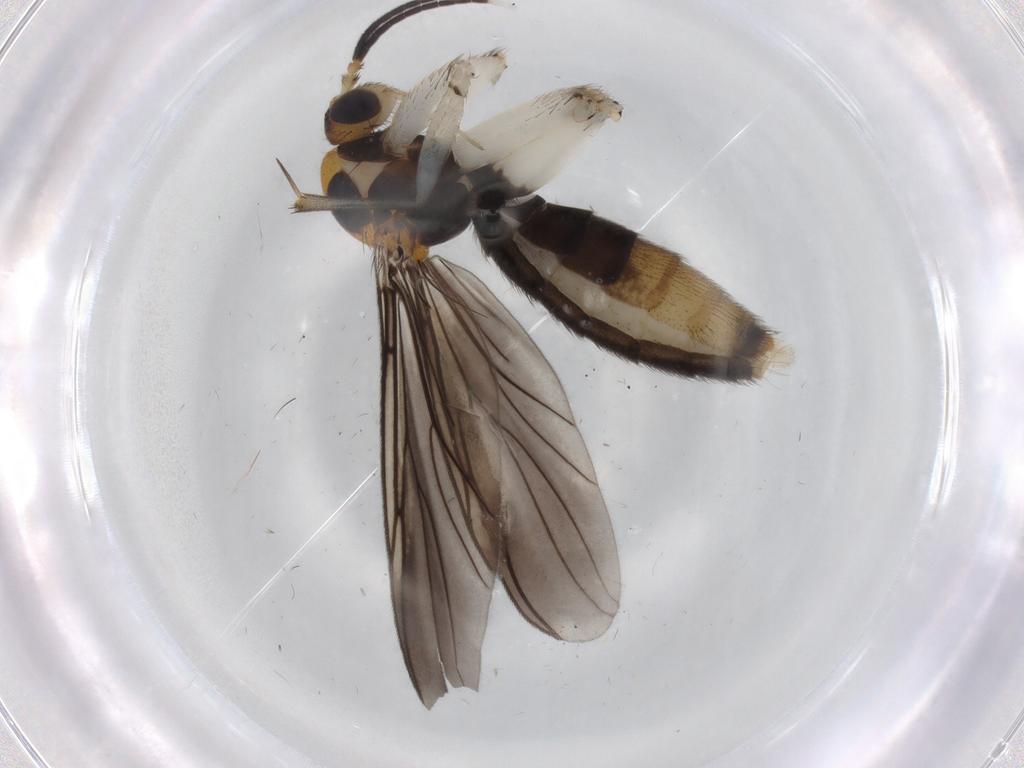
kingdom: Animalia
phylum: Arthropoda
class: Insecta
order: Diptera
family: Mycetophilidae
